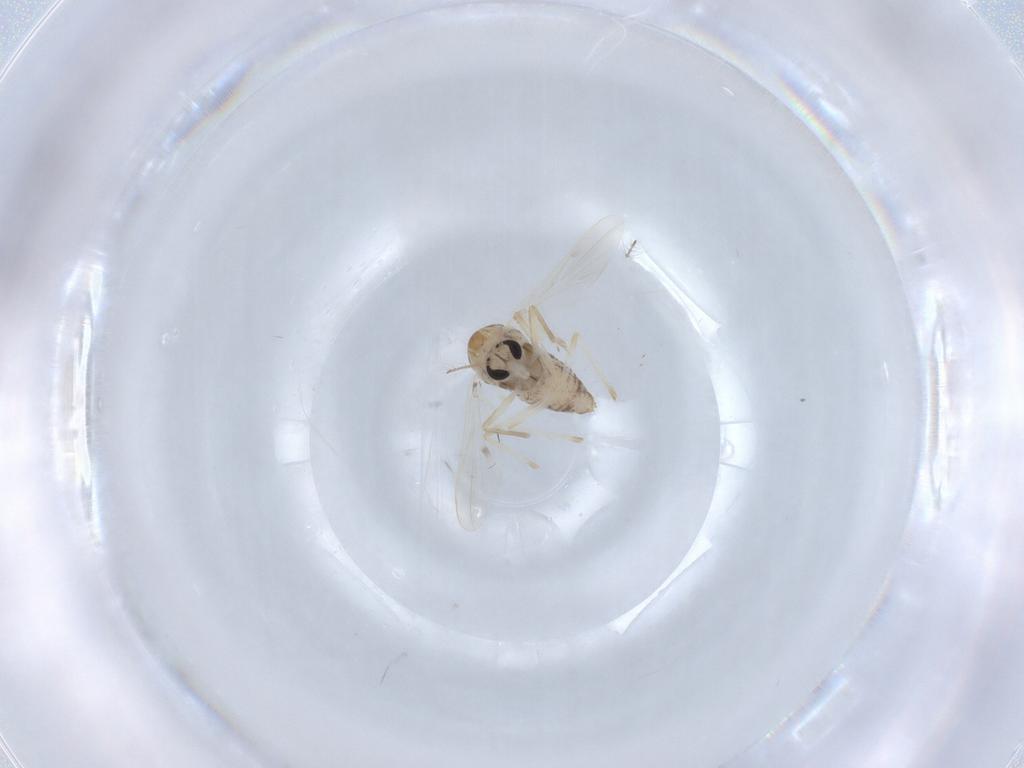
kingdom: Animalia
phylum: Arthropoda
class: Insecta
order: Diptera
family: Chironomidae
